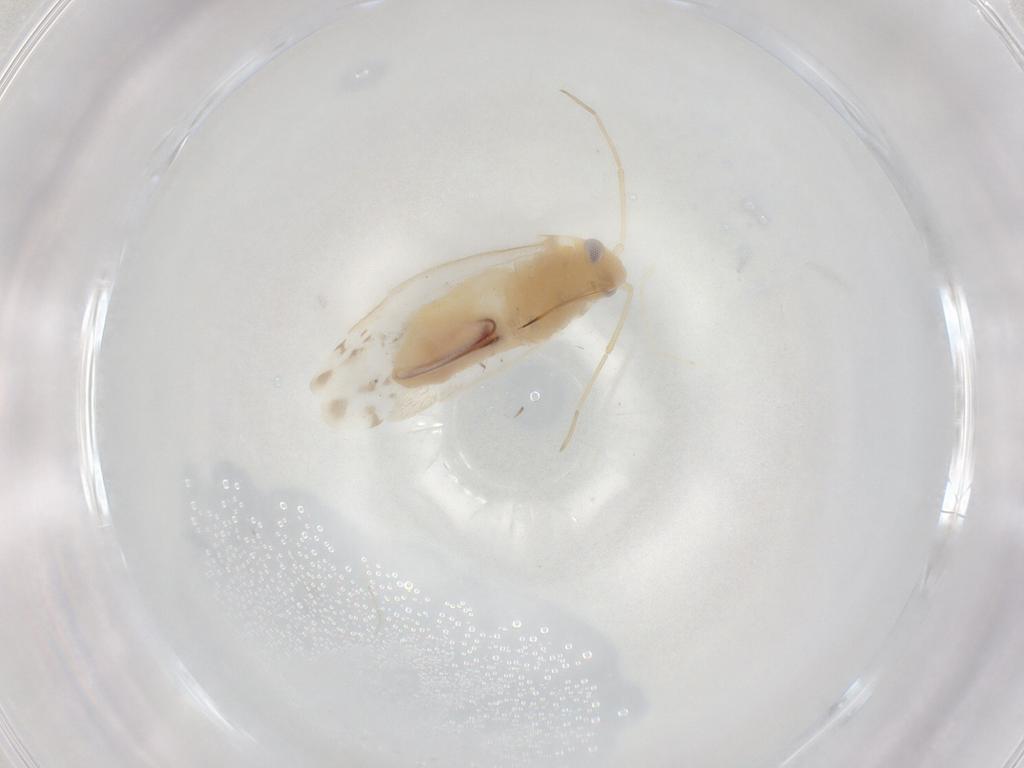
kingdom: Animalia
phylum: Arthropoda
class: Insecta
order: Hemiptera
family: Miridae
